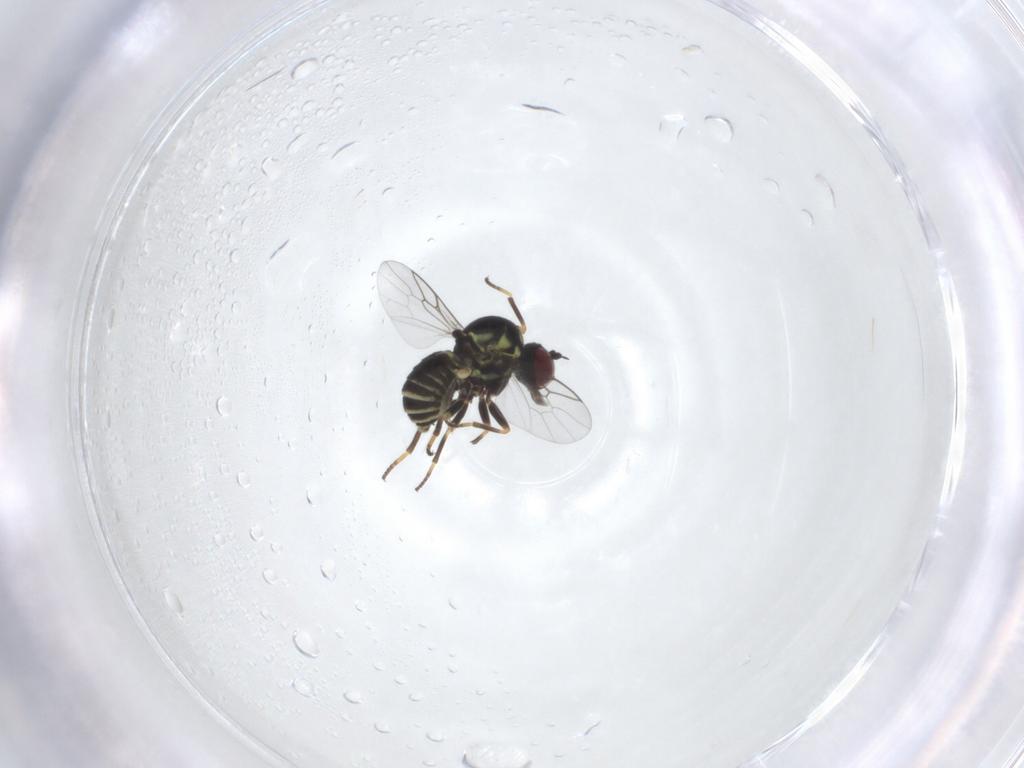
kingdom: Animalia
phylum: Arthropoda
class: Insecta
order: Diptera
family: Mythicomyiidae
